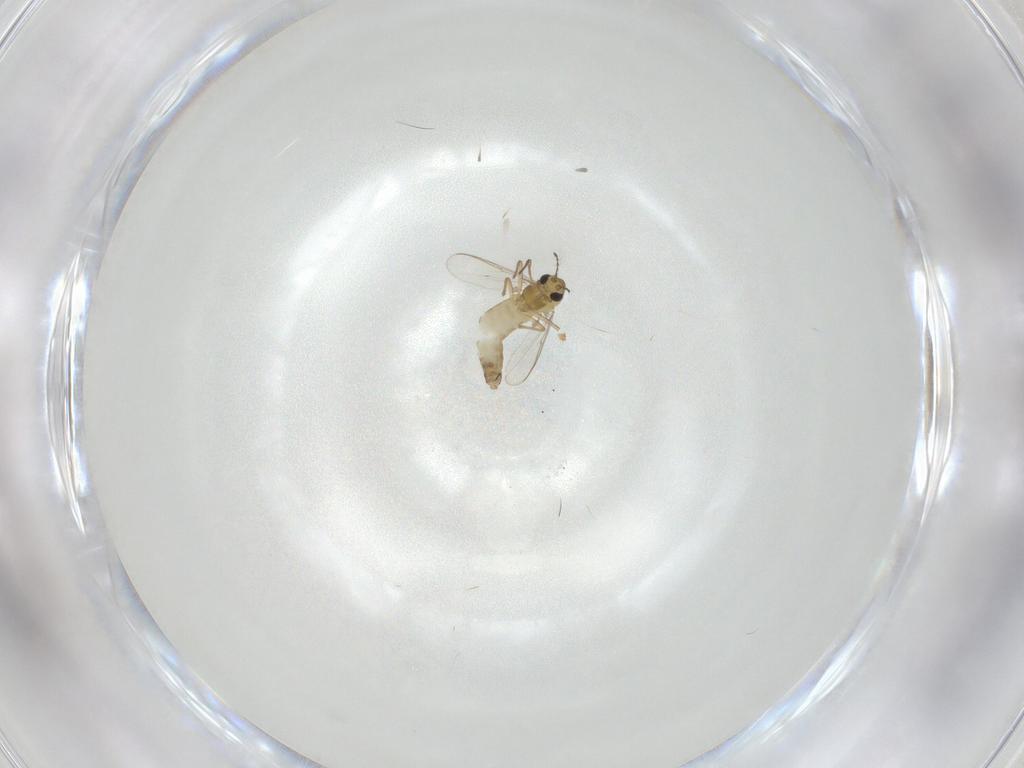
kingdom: Animalia
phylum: Arthropoda
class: Insecta
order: Diptera
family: Chironomidae
